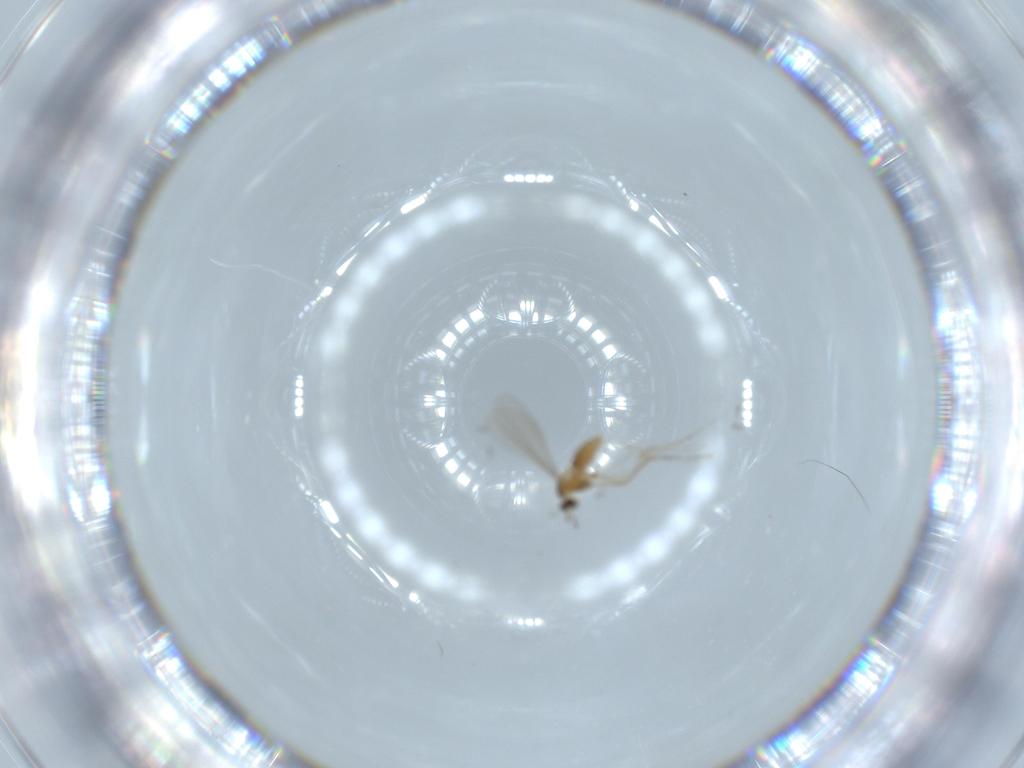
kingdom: Animalia
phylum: Arthropoda
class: Insecta
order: Diptera
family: Cecidomyiidae
